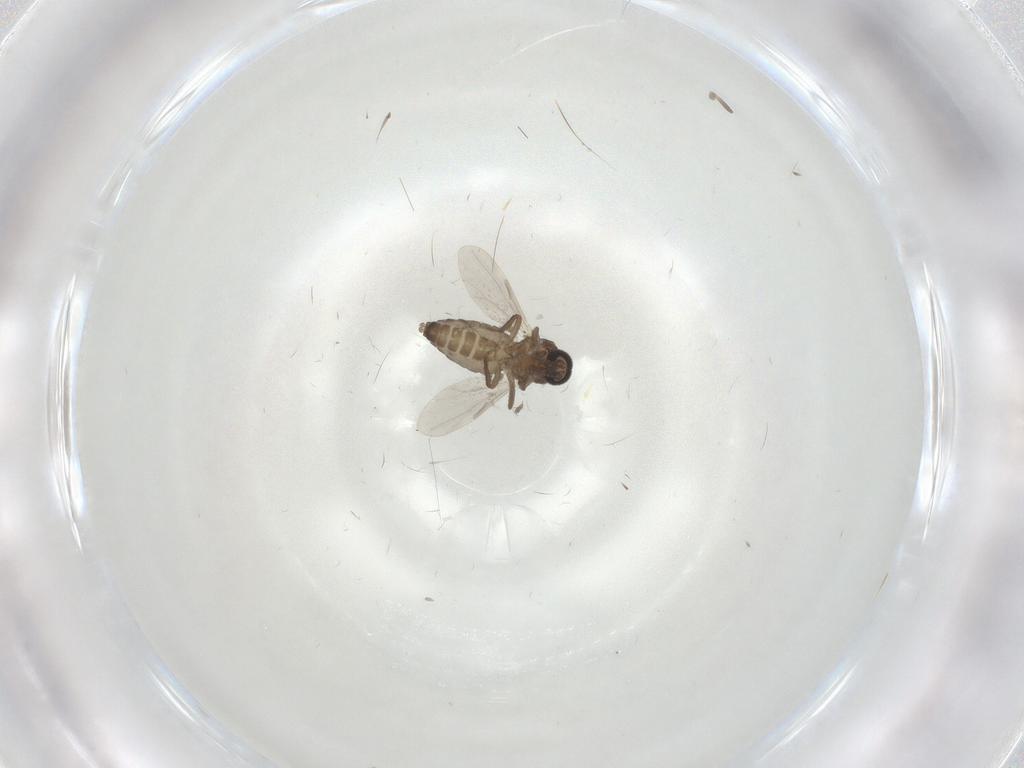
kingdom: Animalia
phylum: Arthropoda
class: Insecta
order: Diptera
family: Ceratopogonidae
